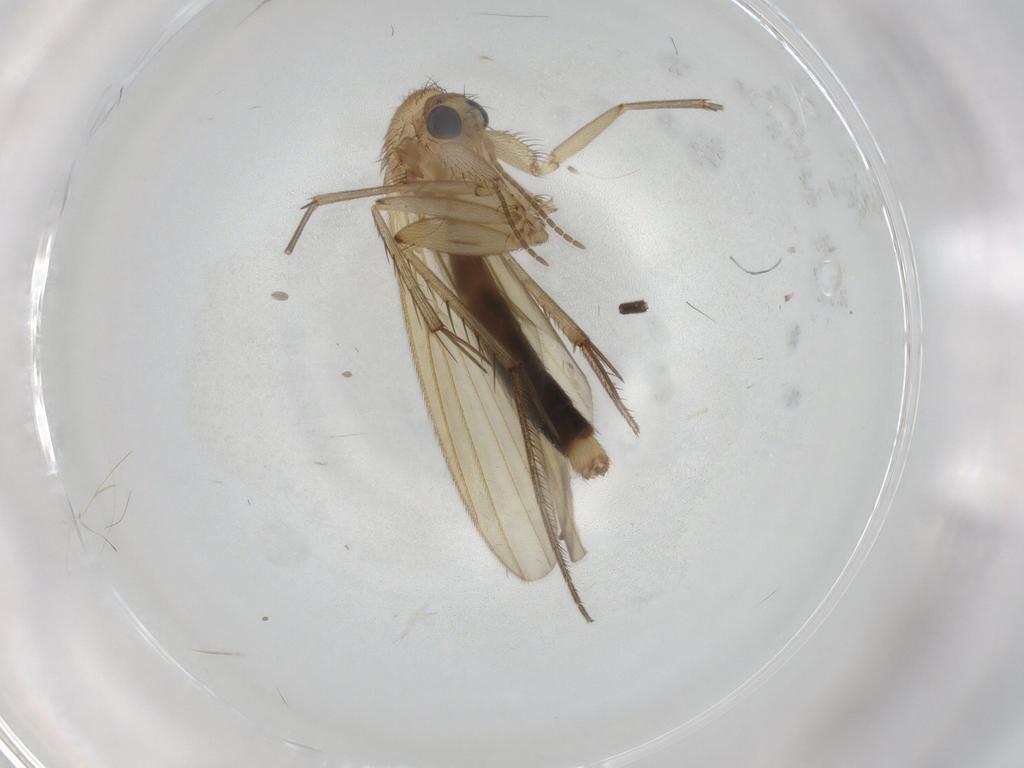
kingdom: Animalia
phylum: Arthropoda
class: Insecta
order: Diptera
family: Mycetophilidae
